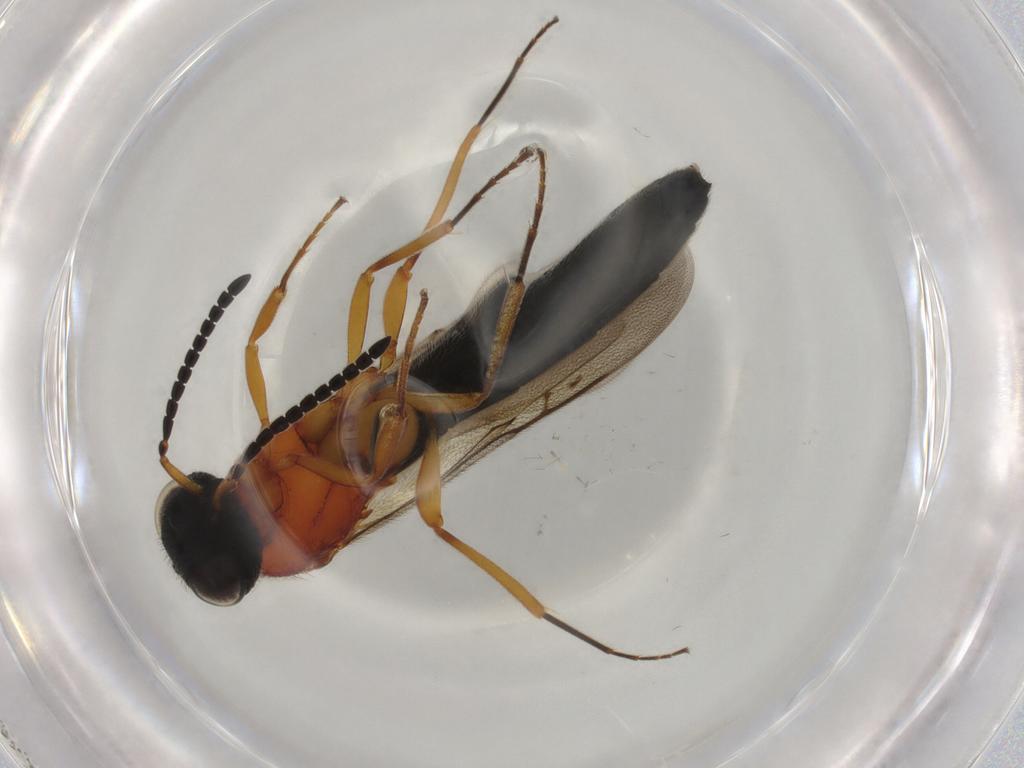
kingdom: Animalia
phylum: Arthropoda
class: Insecta
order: Hymenoptera
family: Scelionidae
